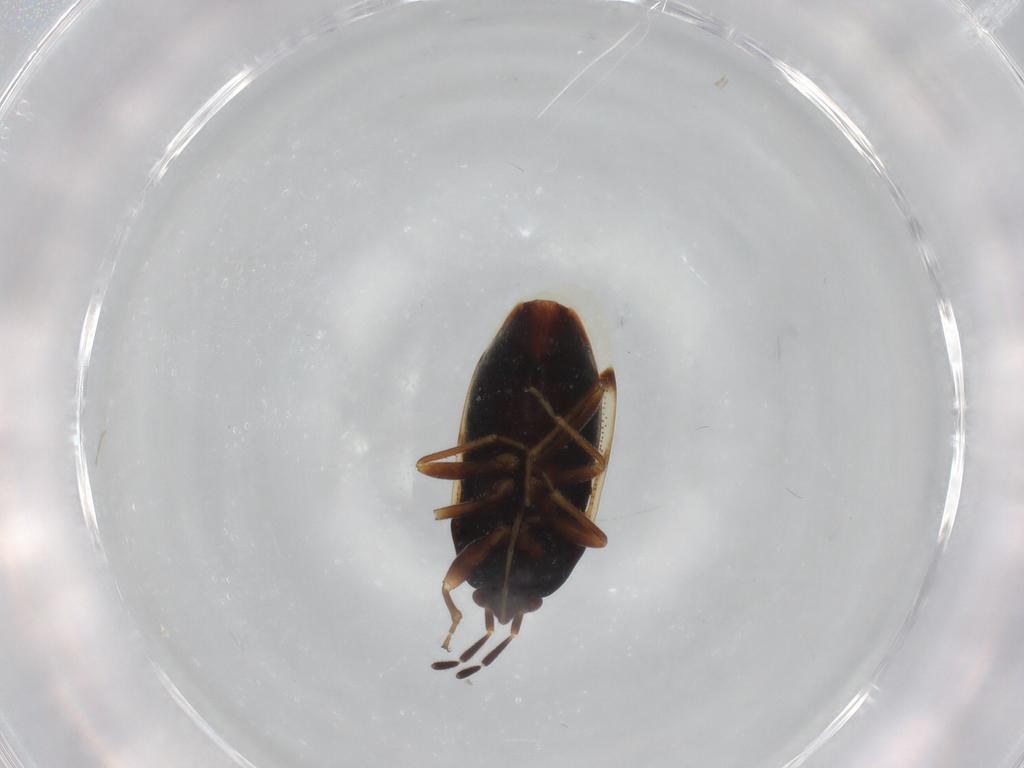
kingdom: Animalia
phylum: Arthropoda
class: Insecta
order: Hemiptera
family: Rhyparochromidae
